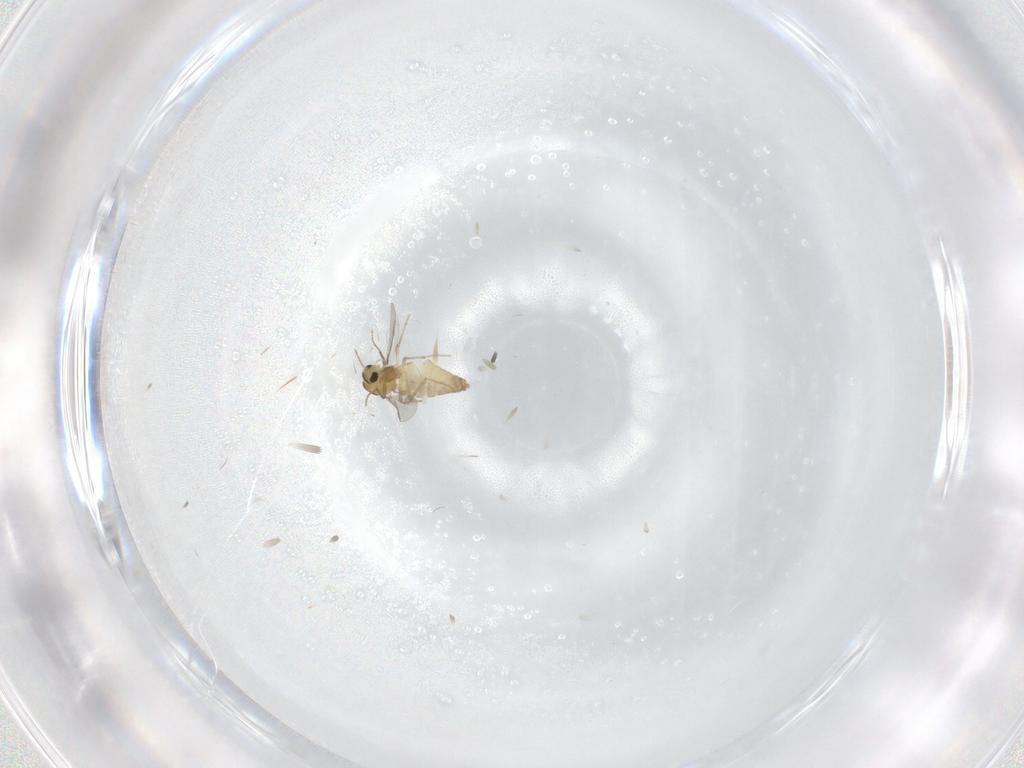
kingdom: Animalia
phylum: Arthropoda
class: Insecta
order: Diptera
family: Chironomidae
